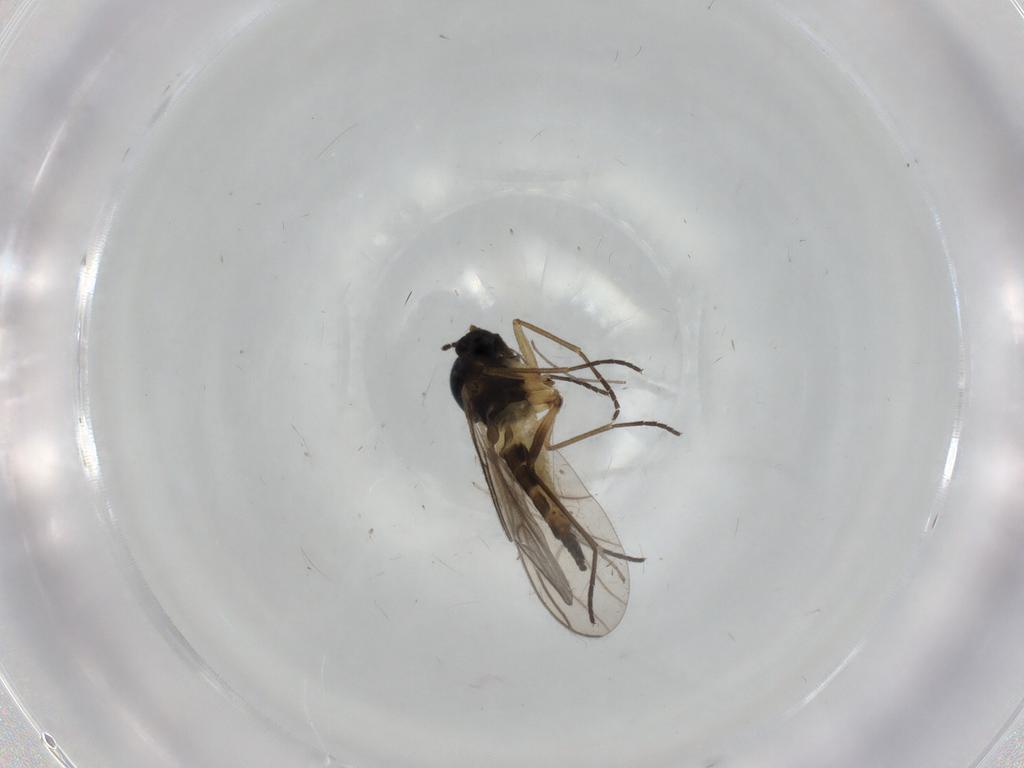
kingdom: Animalia
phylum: Arthropoda
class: Insecta
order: Diptera
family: Sciaridae
